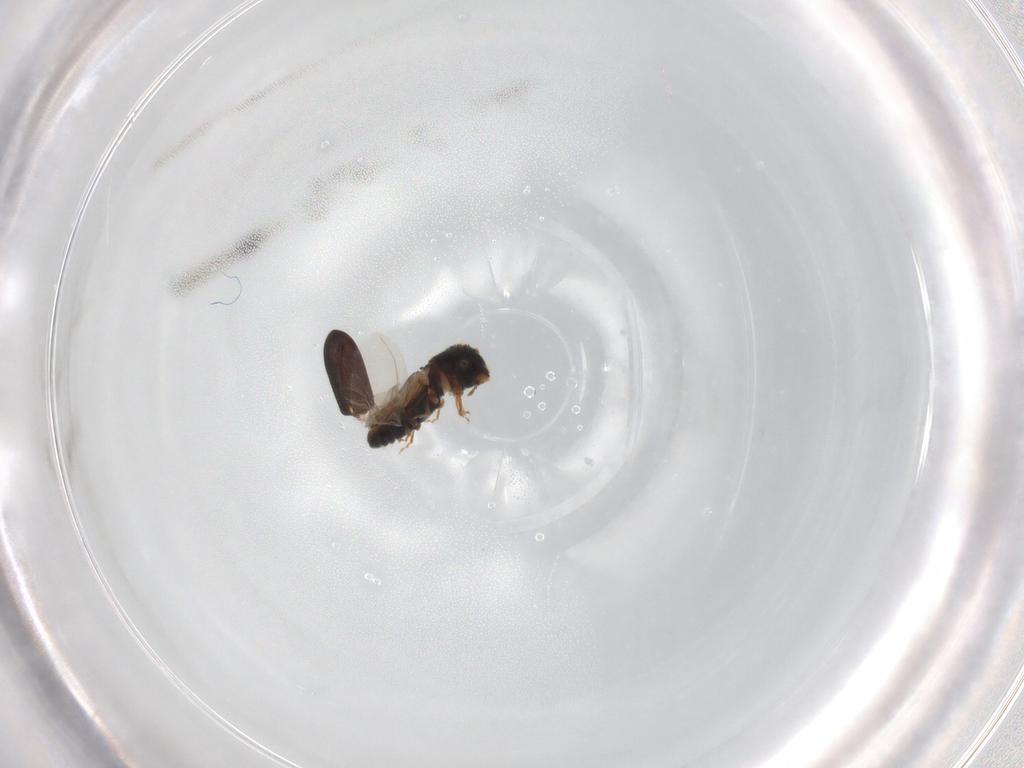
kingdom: Animalia
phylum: Arthropoda
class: Insecta
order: Coleoptera
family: Curculionidae
